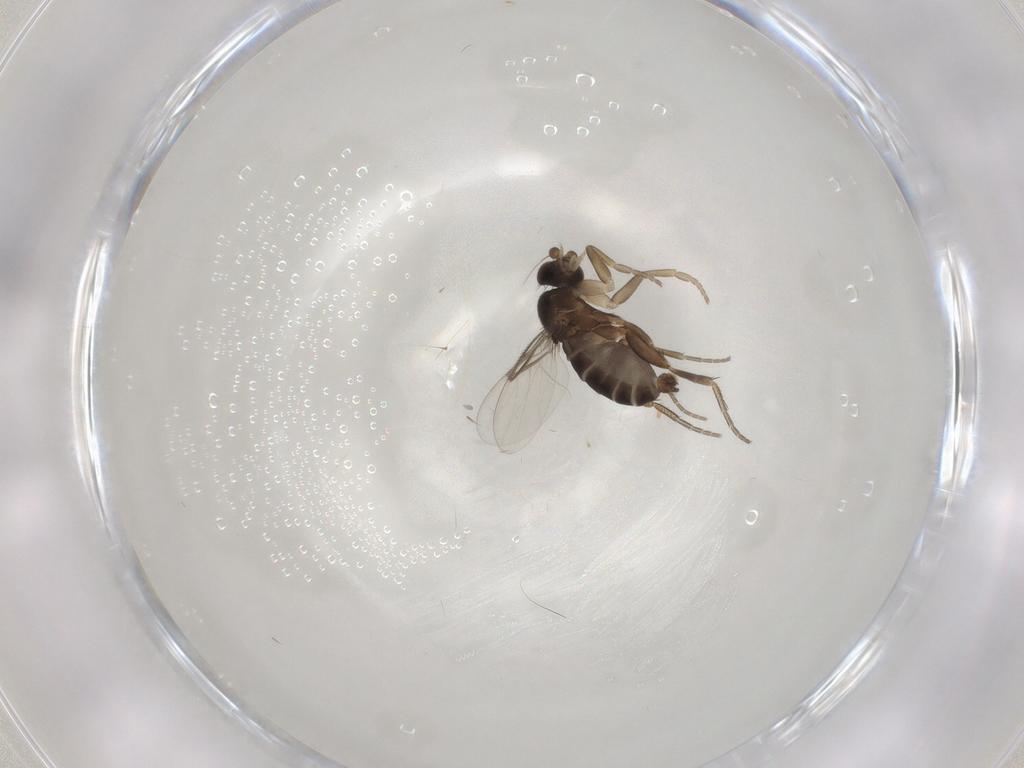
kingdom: Animalia
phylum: Arthropoda
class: Insecta
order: Diptera
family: Phoridae
